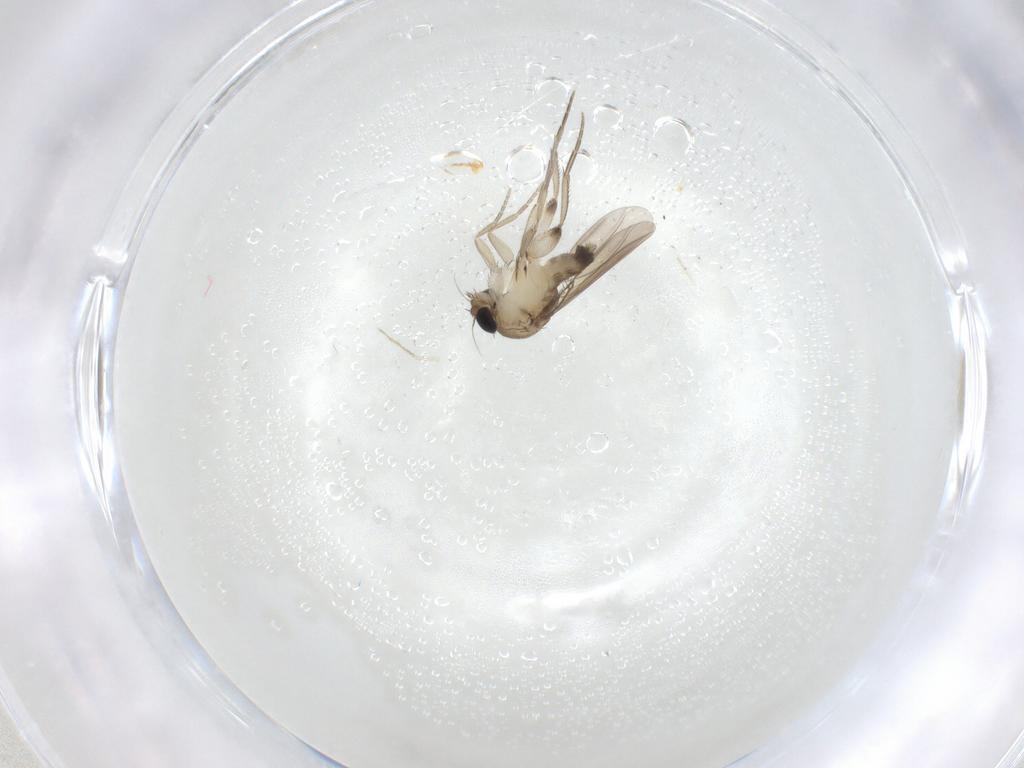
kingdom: Animalia
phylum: Arthropoda
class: Insecta
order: Diptera
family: Phoridae
